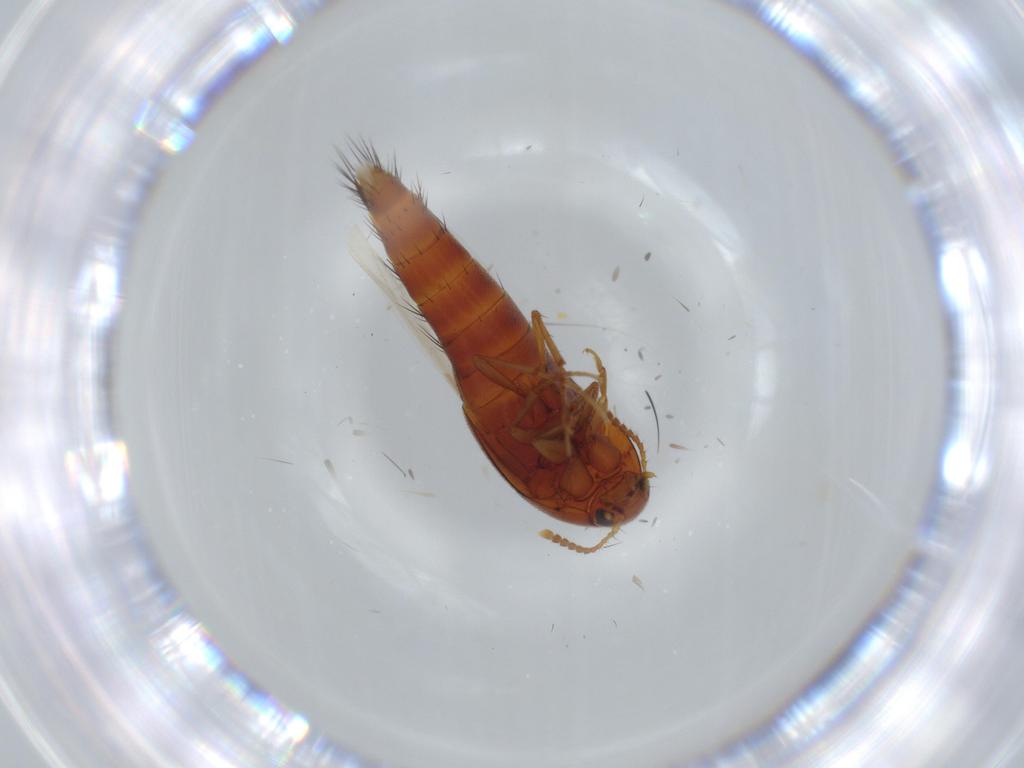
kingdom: Animalia
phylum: Arthropoda
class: Insecta
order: Coleoptera
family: Staphylinidae
